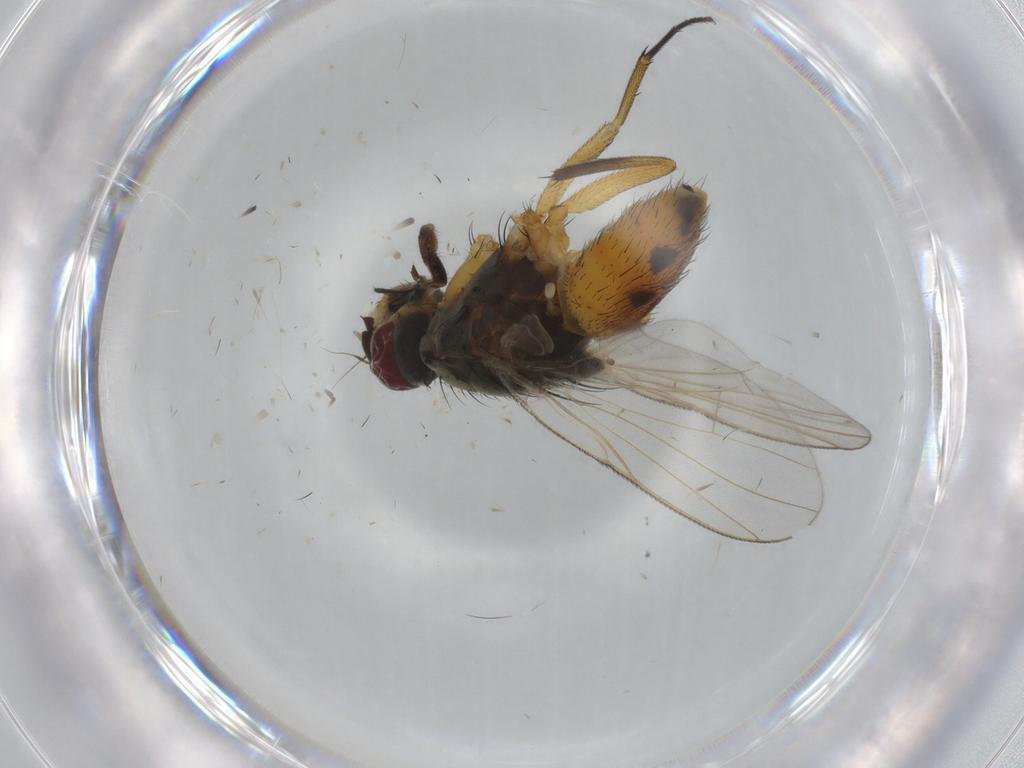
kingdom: Animalia
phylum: Arthropoda
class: Insecta
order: Diptera
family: Muscidae
